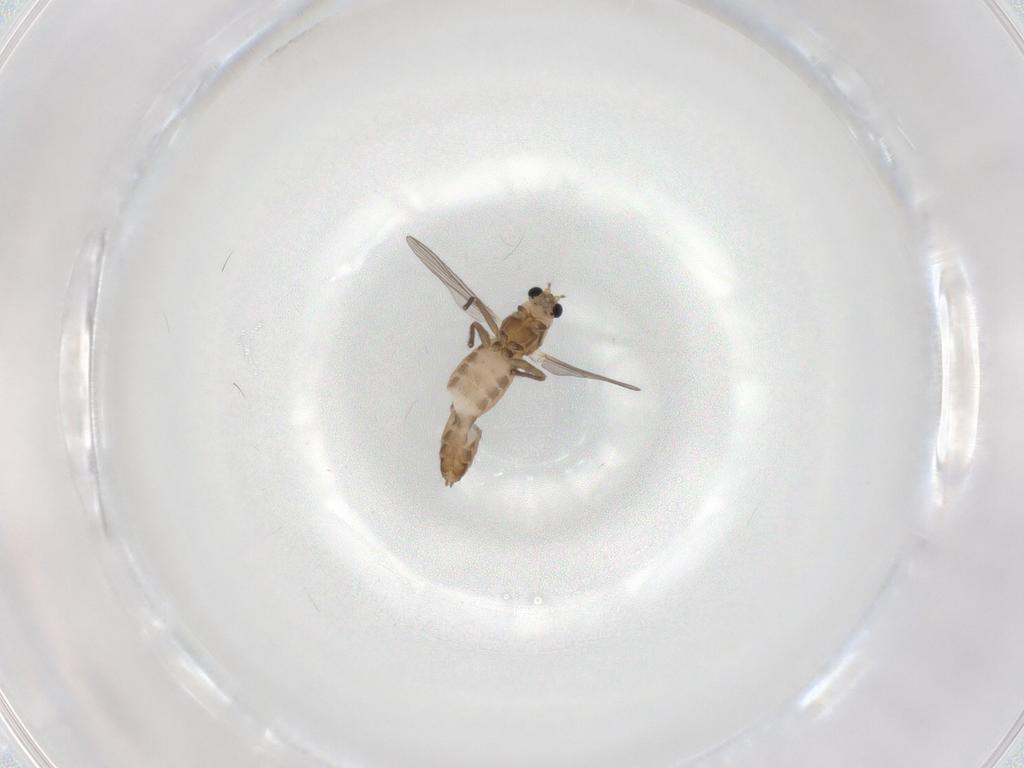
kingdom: Animalia
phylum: Arthropoda
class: Insecta
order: Diptera
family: Chironomidae
